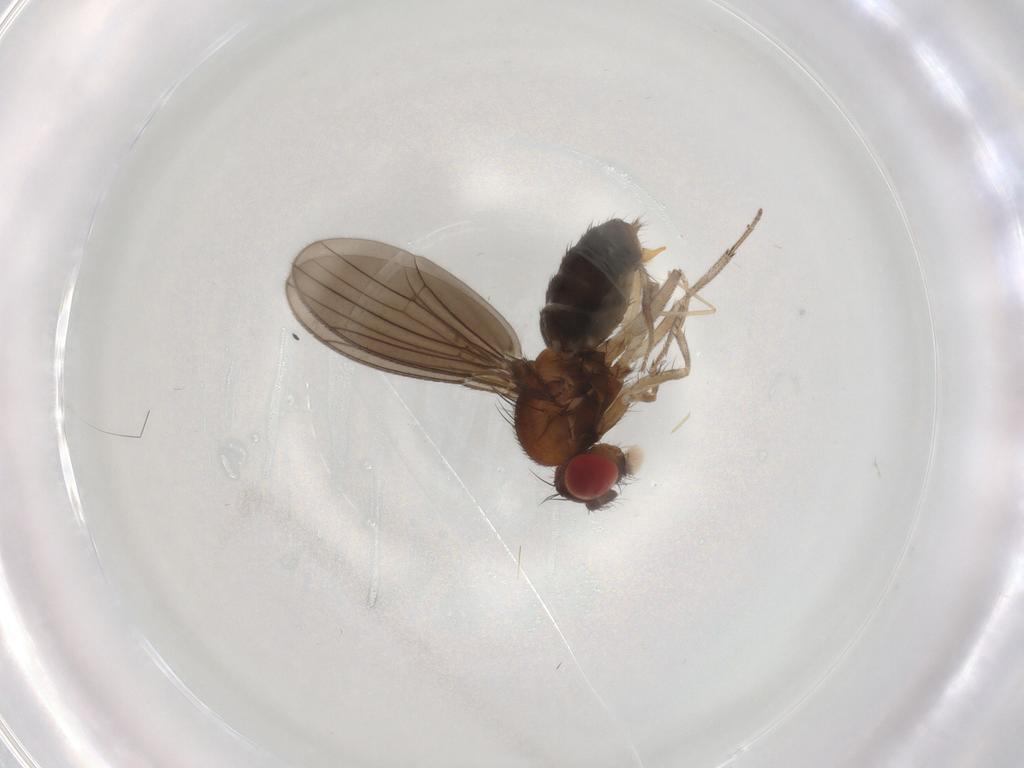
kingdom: Animalia
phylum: Arthropoda
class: Insecta
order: Diptera
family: Drosophilidae
